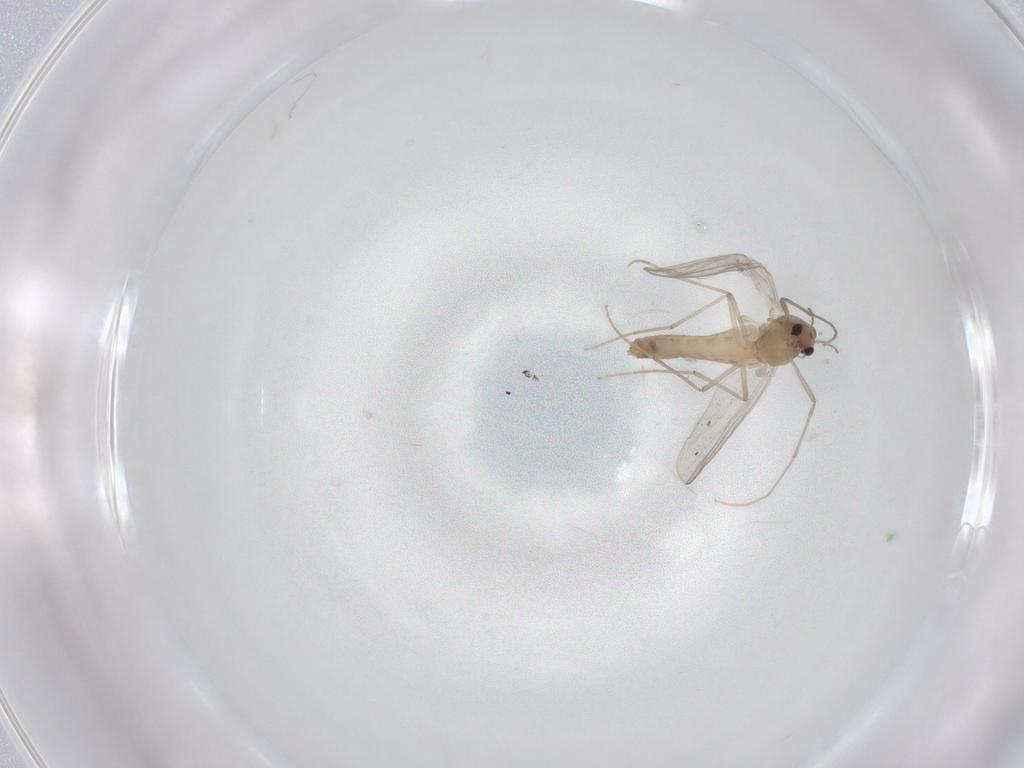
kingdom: Animalia
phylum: Arthropoda
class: Insecta
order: Diptera
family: Chironomidae
